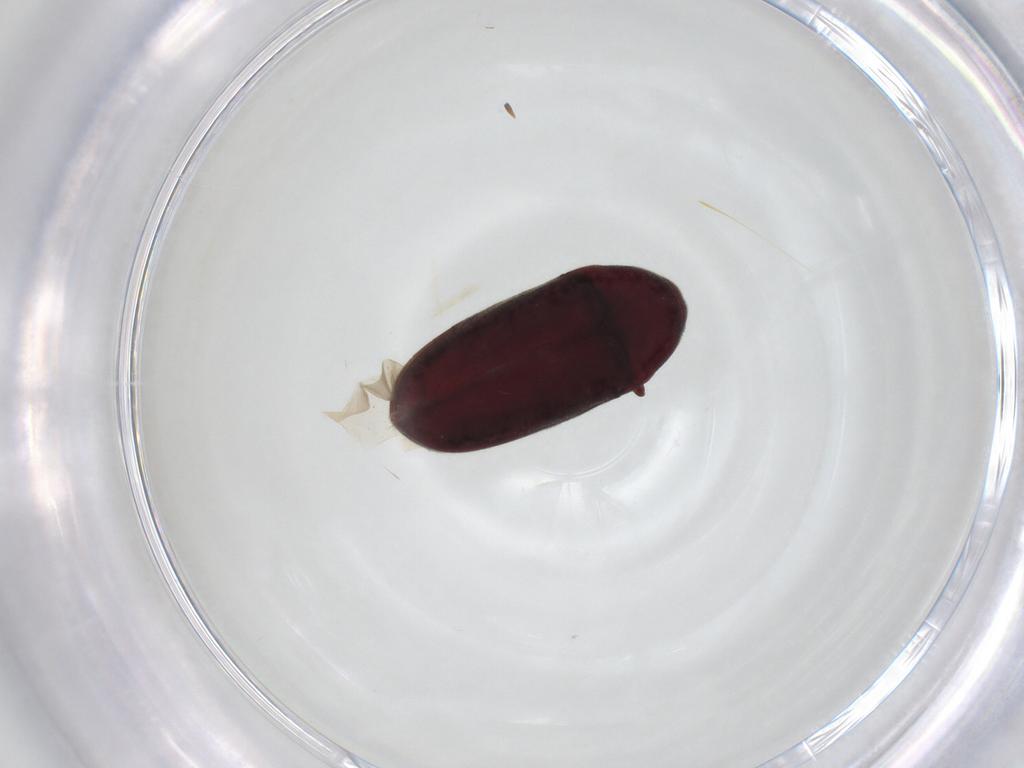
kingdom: Animalia
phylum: Arthropoda
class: Insecta
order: Coleoptera
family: Throscidae
